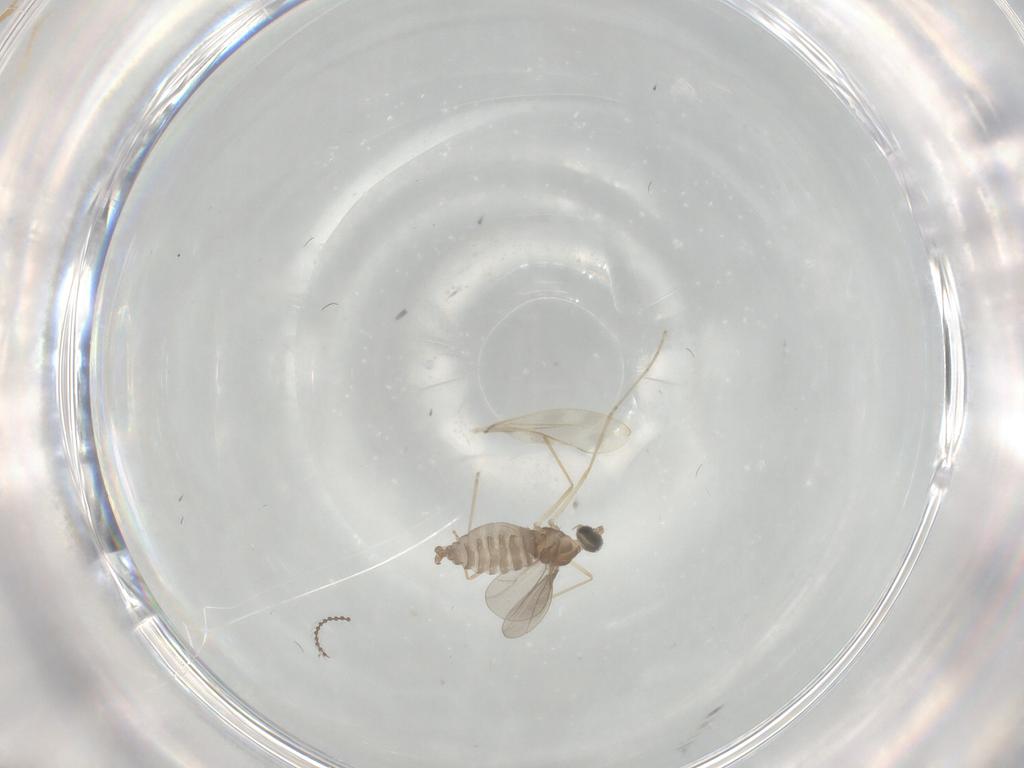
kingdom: Animalia
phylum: Arthropoda
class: Insecta
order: Diptera
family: Cecidomyiidae
